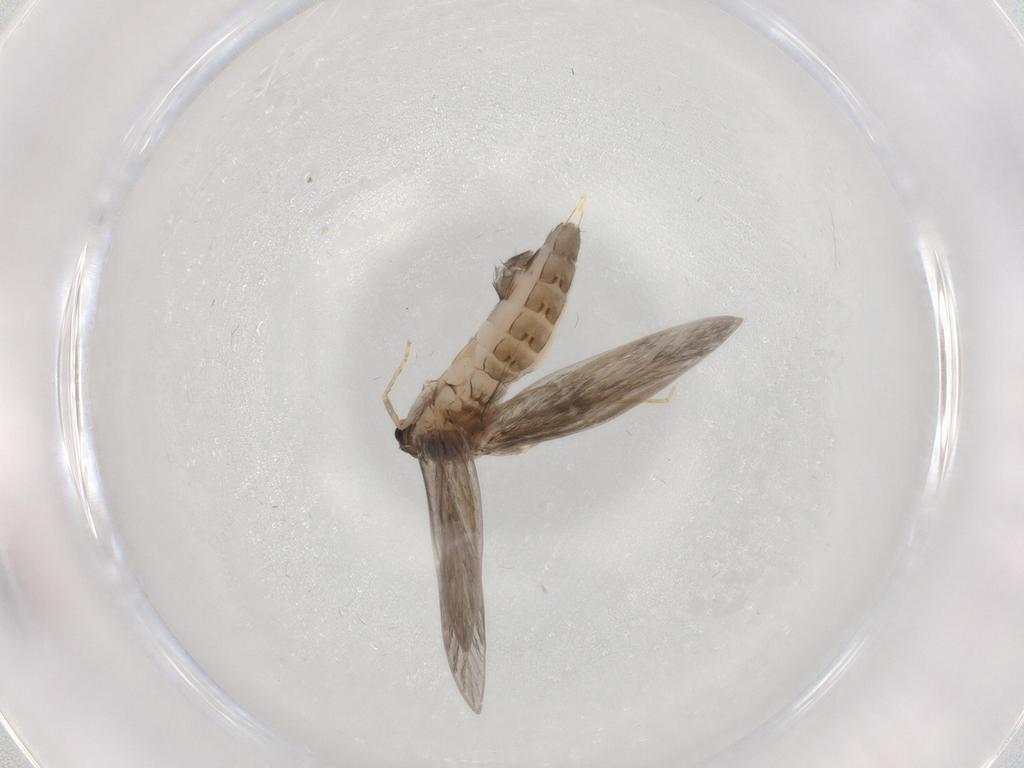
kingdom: Animalia
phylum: Arthropoda
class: Insecta
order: Trichoptera
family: Hydroptilidae
